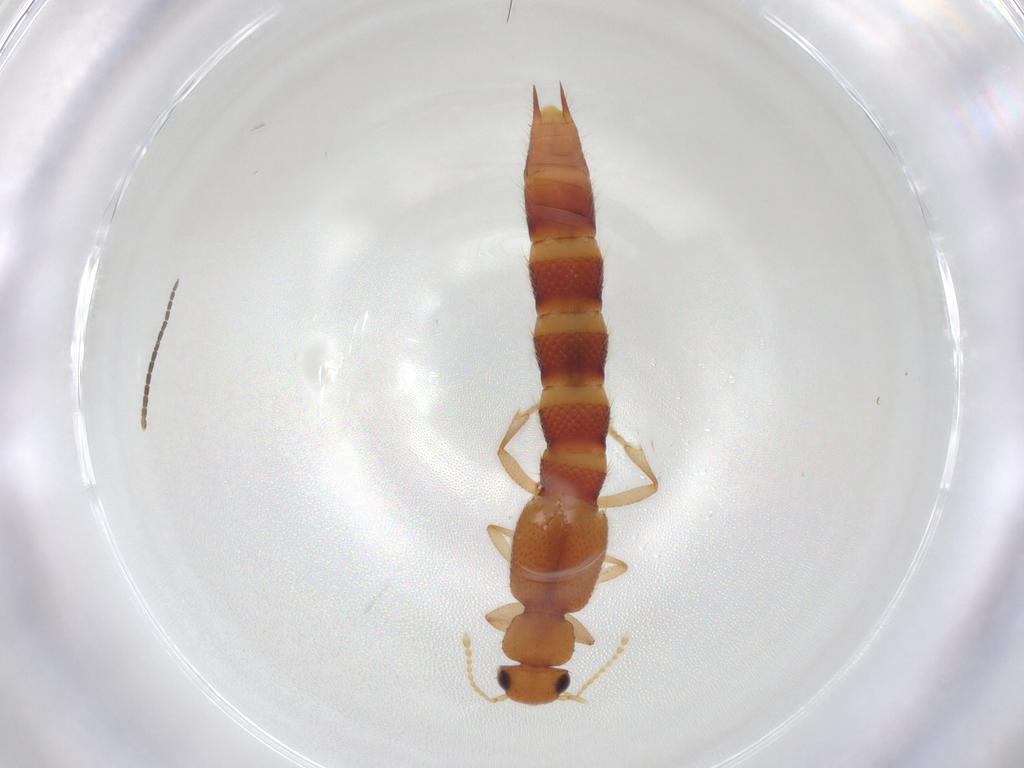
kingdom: Animalia
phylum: Arthropoda
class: Insecta
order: Coleoptera
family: Staphylinidae
